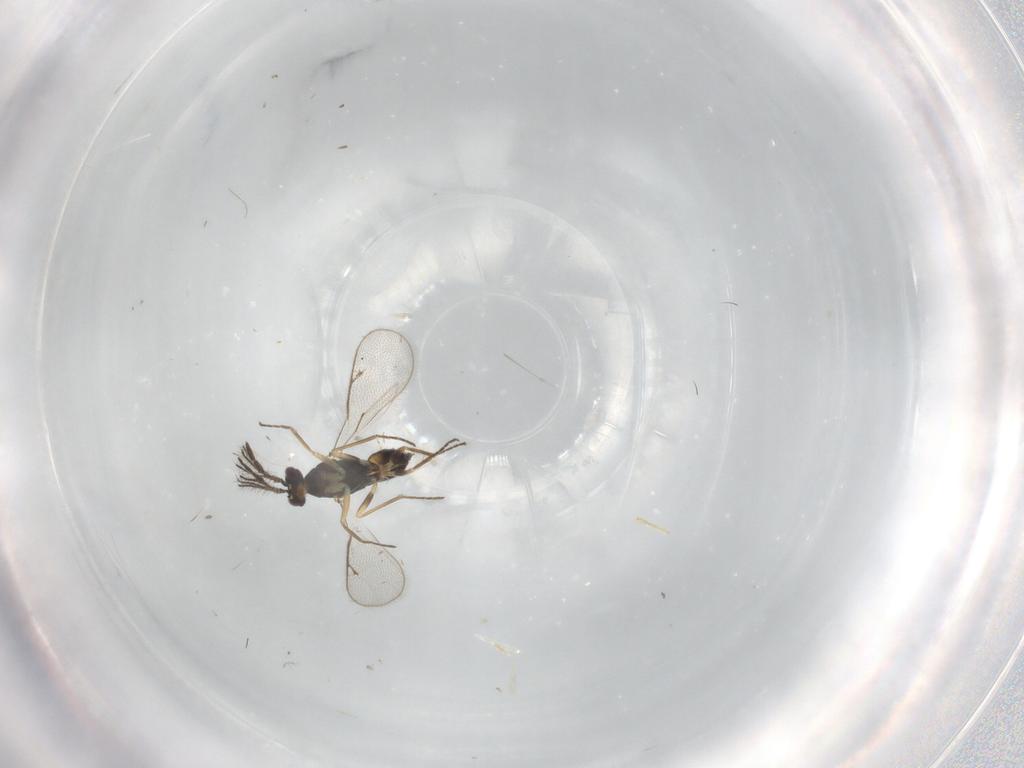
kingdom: Animalia
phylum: Arthropoda
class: Insecta
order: Hymenoptera
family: Eulophidae
